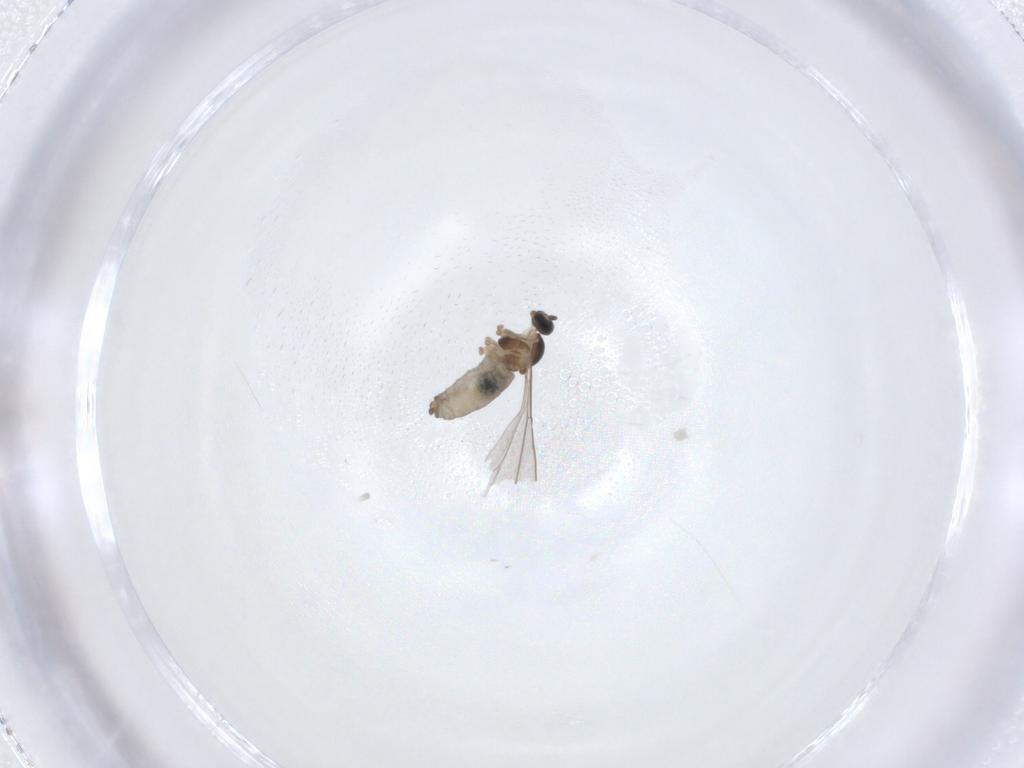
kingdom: Animalia
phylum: Arthropoda
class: Insecta
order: Diptera
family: Cecidomyiidae
